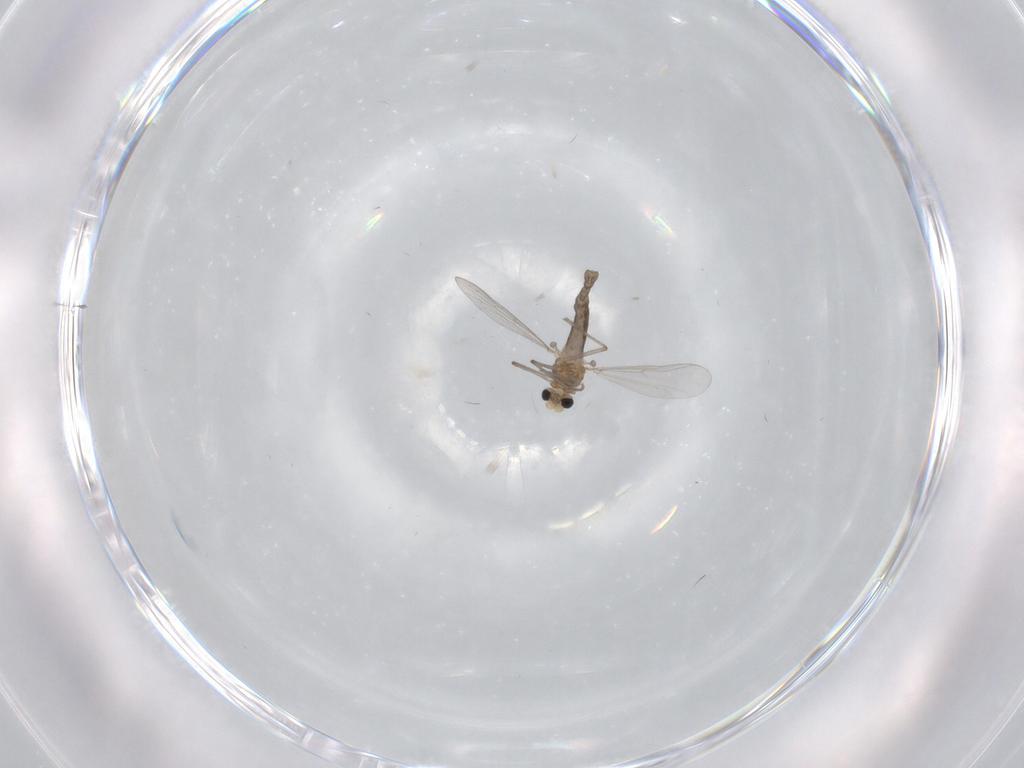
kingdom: Animalia
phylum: Arthropoda
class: Insecta
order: Diptera
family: Chironomidae
